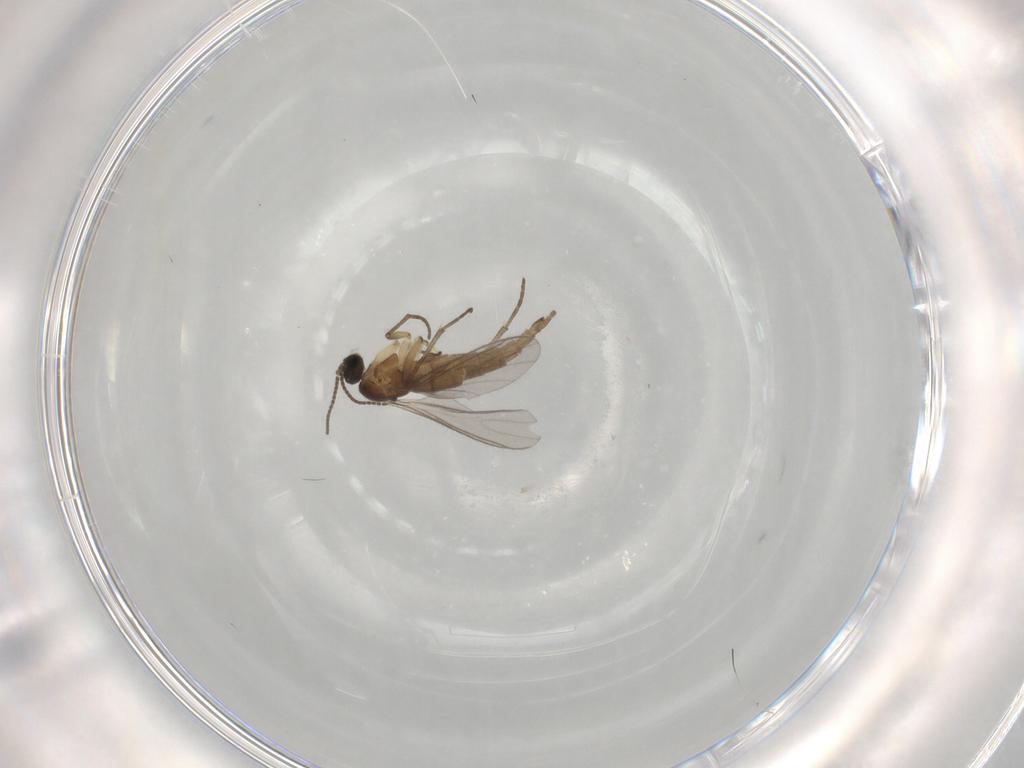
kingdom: Animalia
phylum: Arthropoda
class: Insecta
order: Diptera
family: Sciaridae
